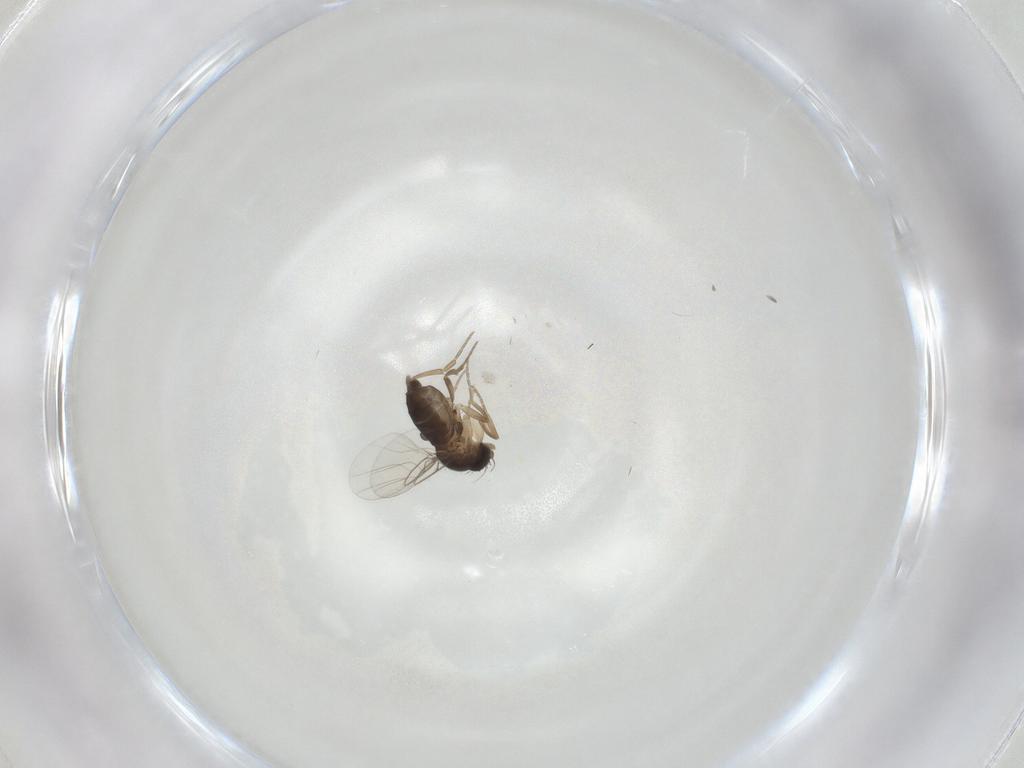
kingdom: Animalia
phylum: Arthropoda
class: Insecta
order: Diptera
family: Phoridae
